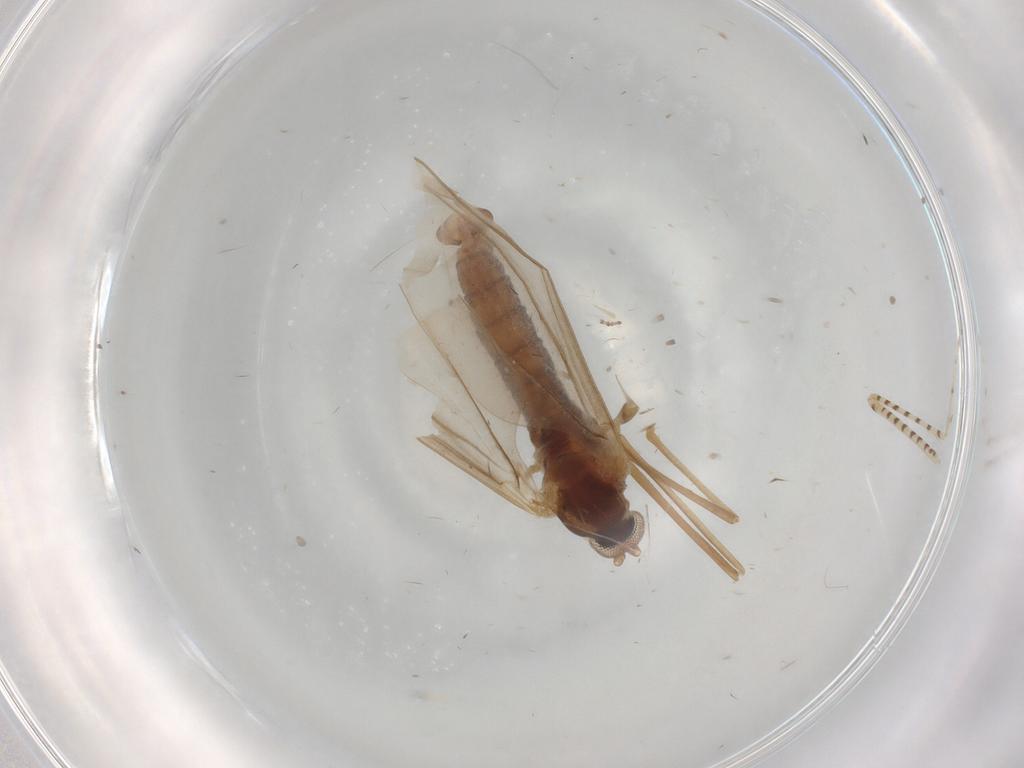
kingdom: Animalia
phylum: Arthropoda
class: Insecta
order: Diptera
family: Cecidomyiidae
